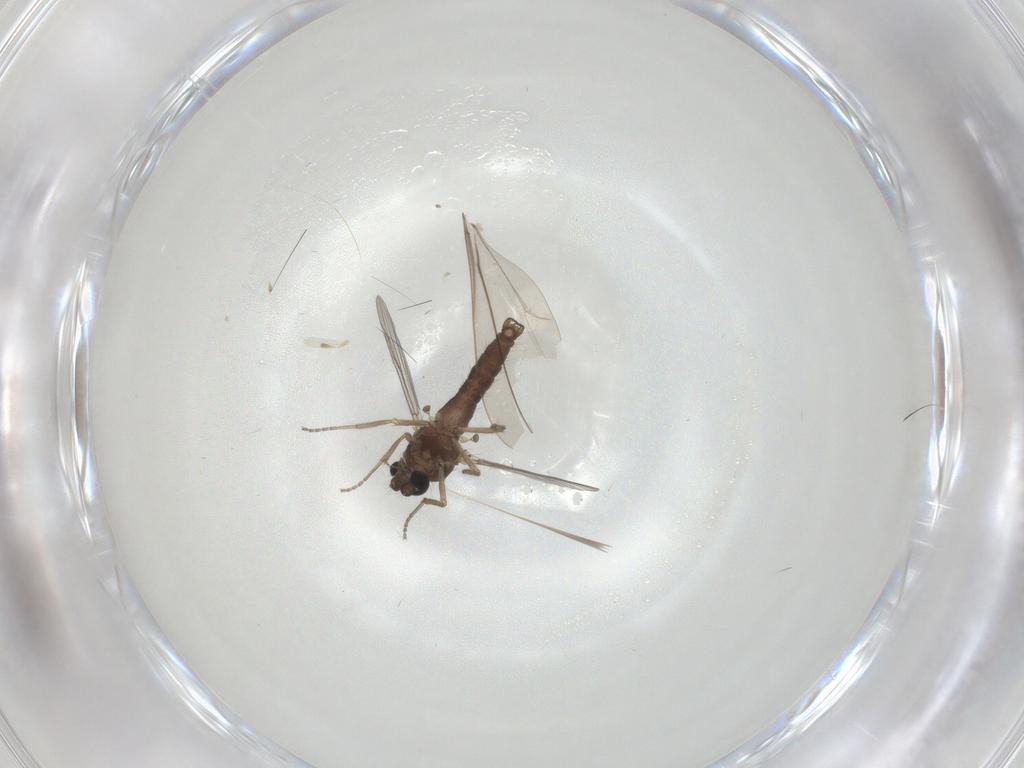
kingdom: Animalia
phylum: Arthropoda
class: Insecta
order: Diptera
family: Ceratopogonidae
